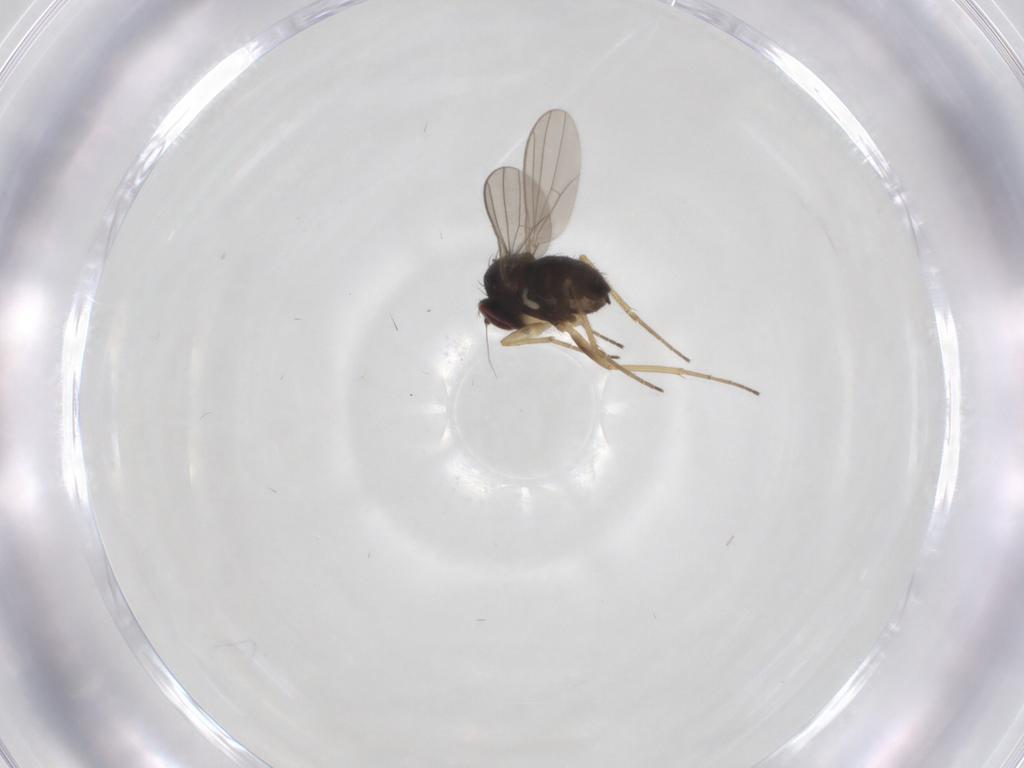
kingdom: Animalia
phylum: Arthropoda
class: Insecta
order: Diptera
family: Dolichopodidae
